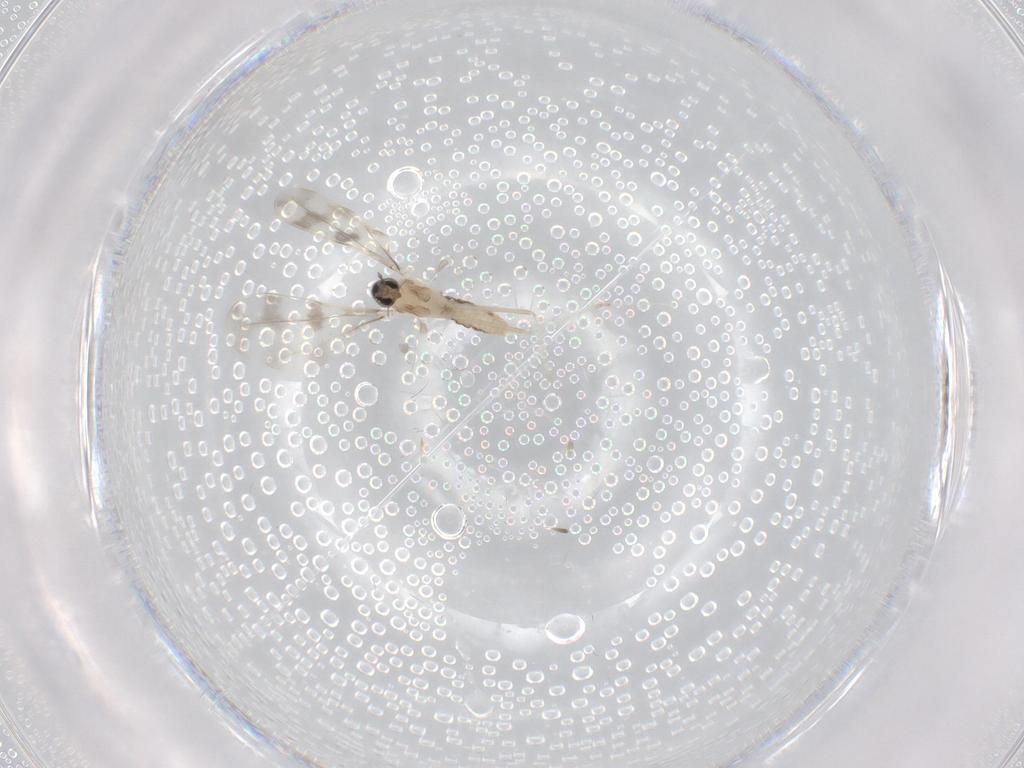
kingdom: Animalia
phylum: Arthropoda
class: Insecta
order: Diptera
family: Cecidomyiidae
